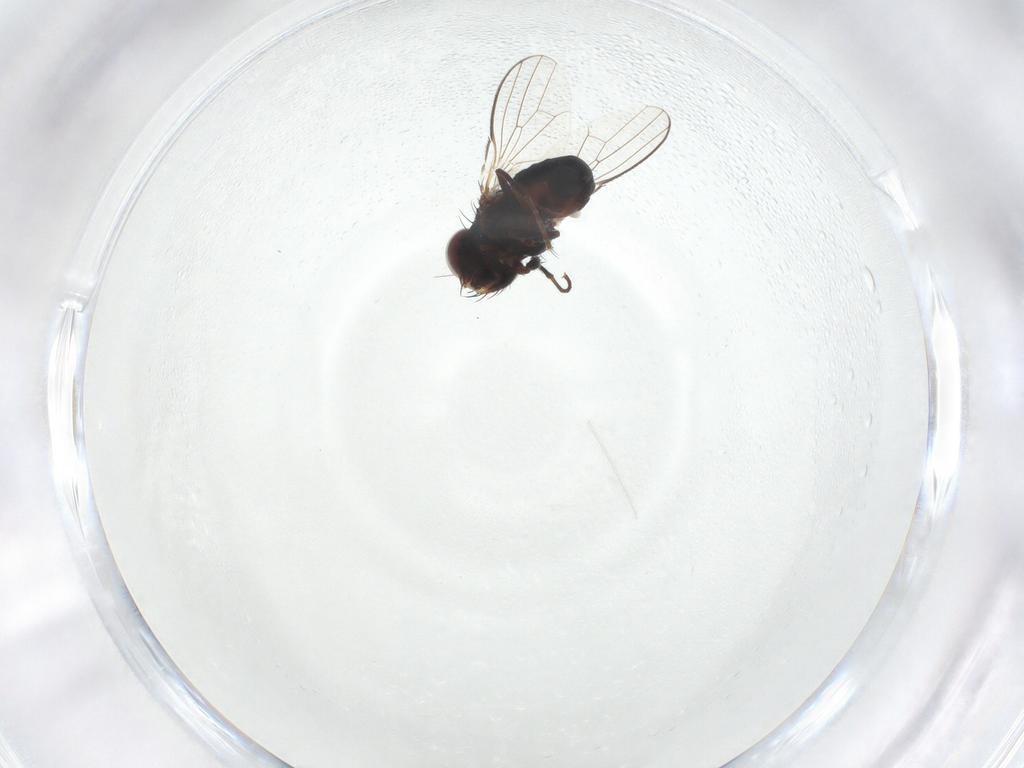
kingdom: Animalia
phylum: Arthropoda
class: Insecta
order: Diptera
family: Carnidae
